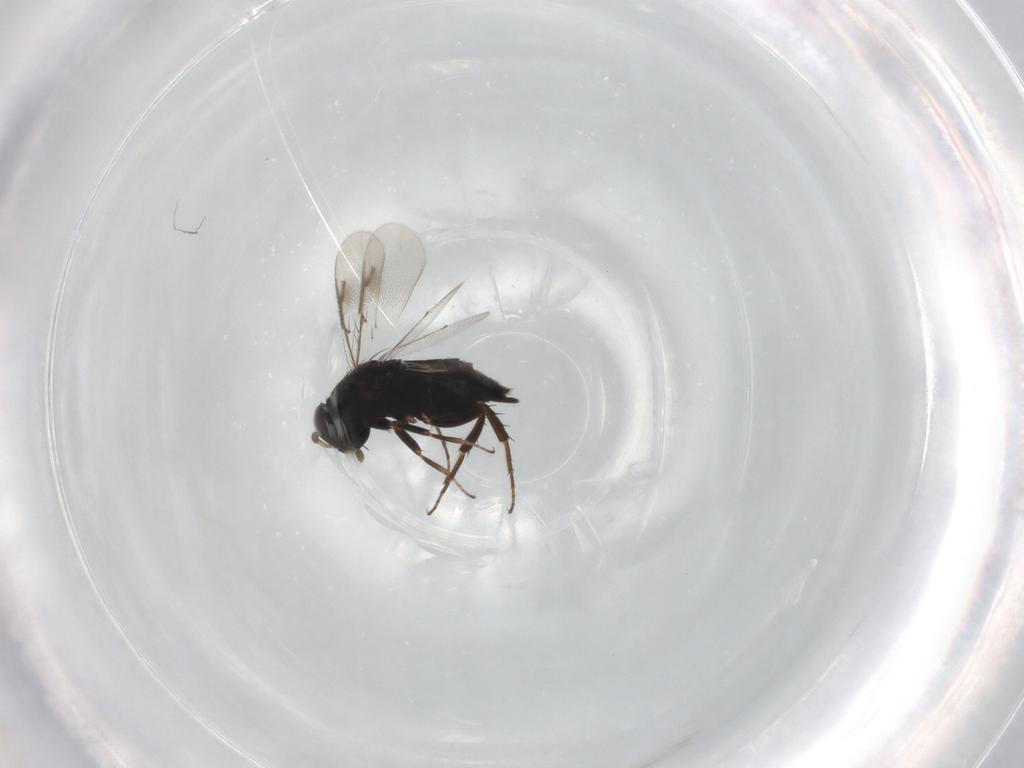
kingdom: Animalia
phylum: Arthropoda
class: Insecta
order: Hymenoptera
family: Pirenidae
